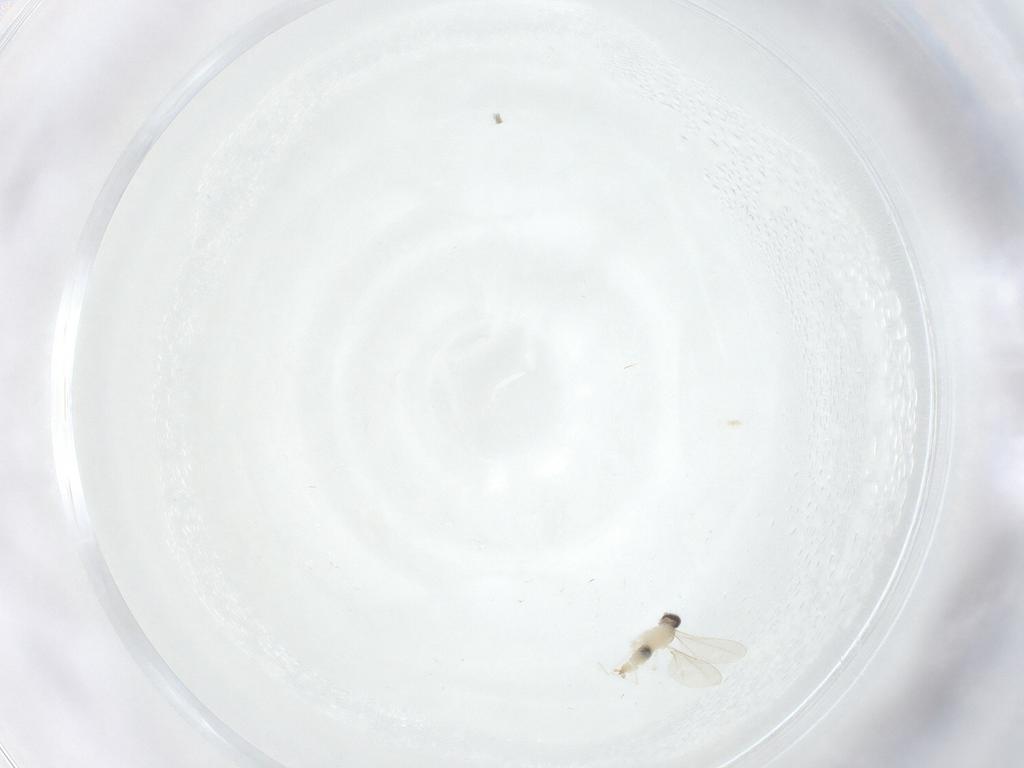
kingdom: Animalia
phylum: Arthropoda
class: Insecta
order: Diptera
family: Cecidomyiidae
